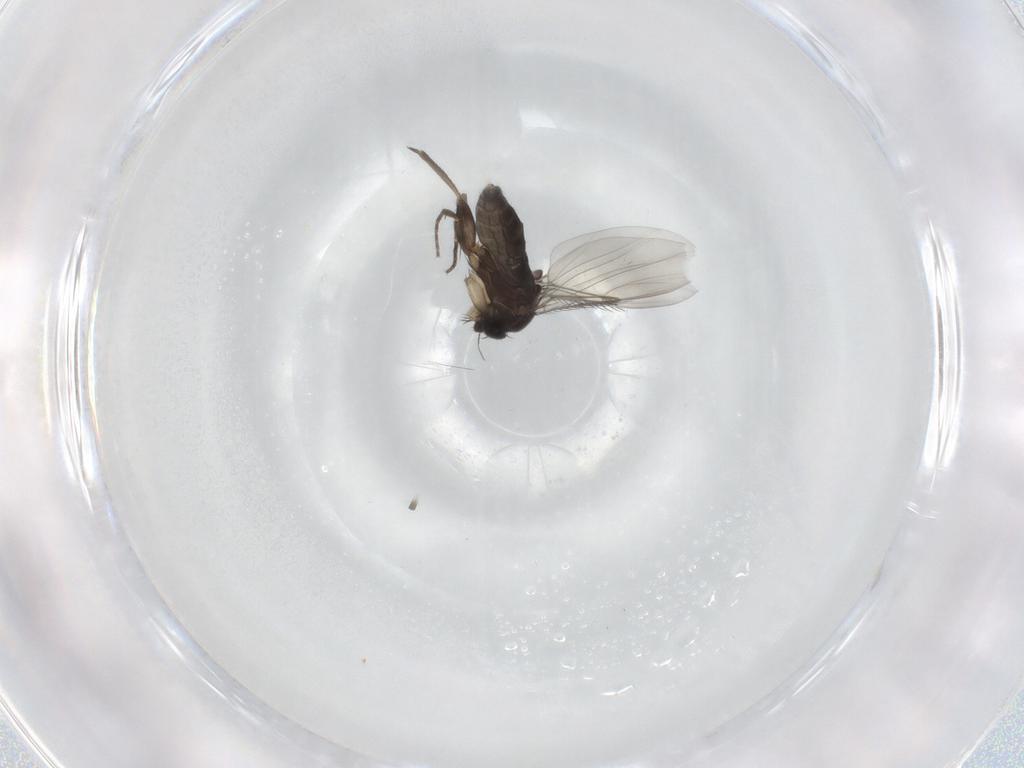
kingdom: Animalia
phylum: Arthropoda
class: Insecta
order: Diptera
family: Phoridae
